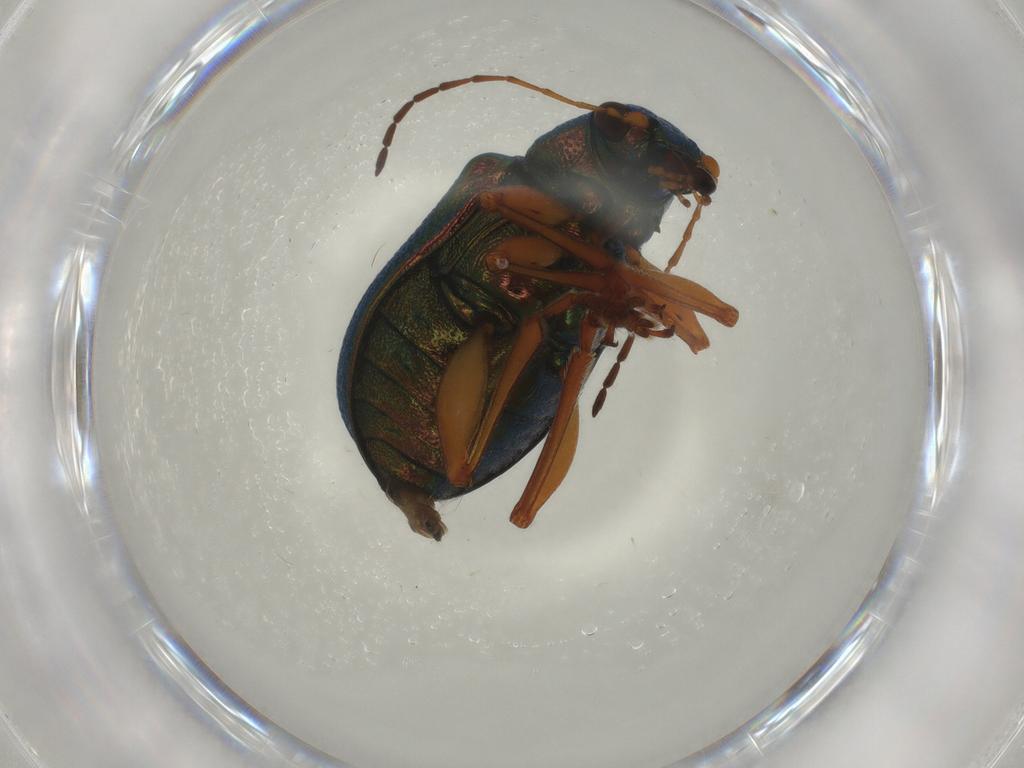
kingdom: Animalia
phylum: Arthropoda
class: Insecta
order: Coleoptera
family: Chrysomelidae
